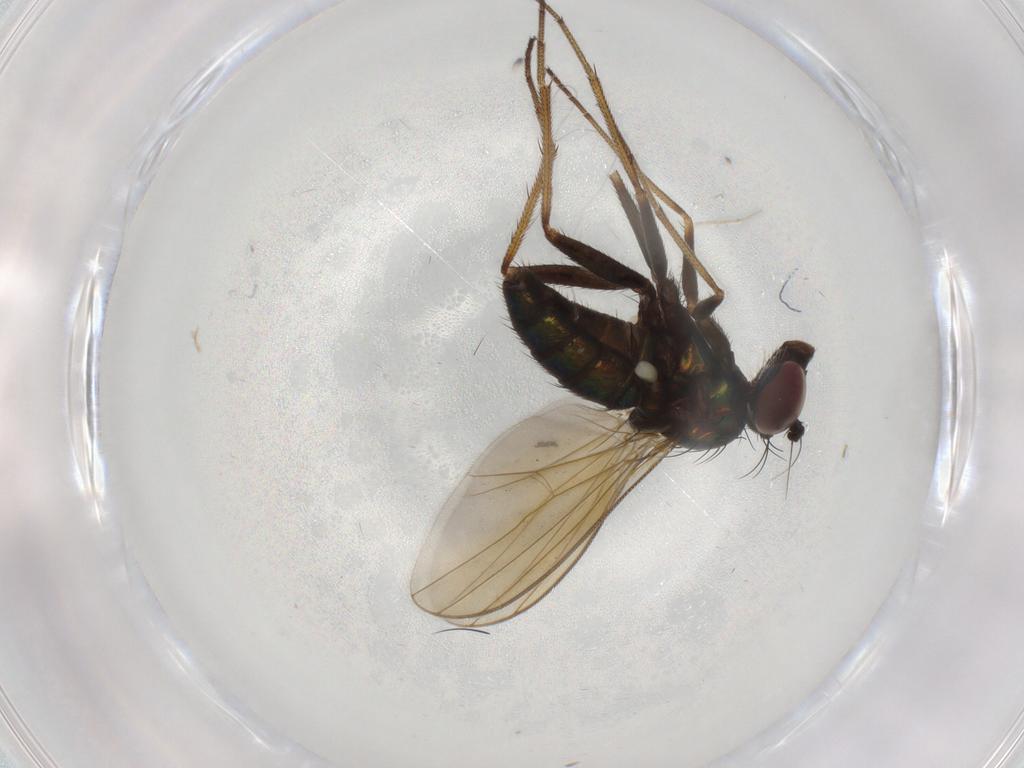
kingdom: Animalia
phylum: Arthropoda
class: Insecta
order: Diptera
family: Dolichopodidae
